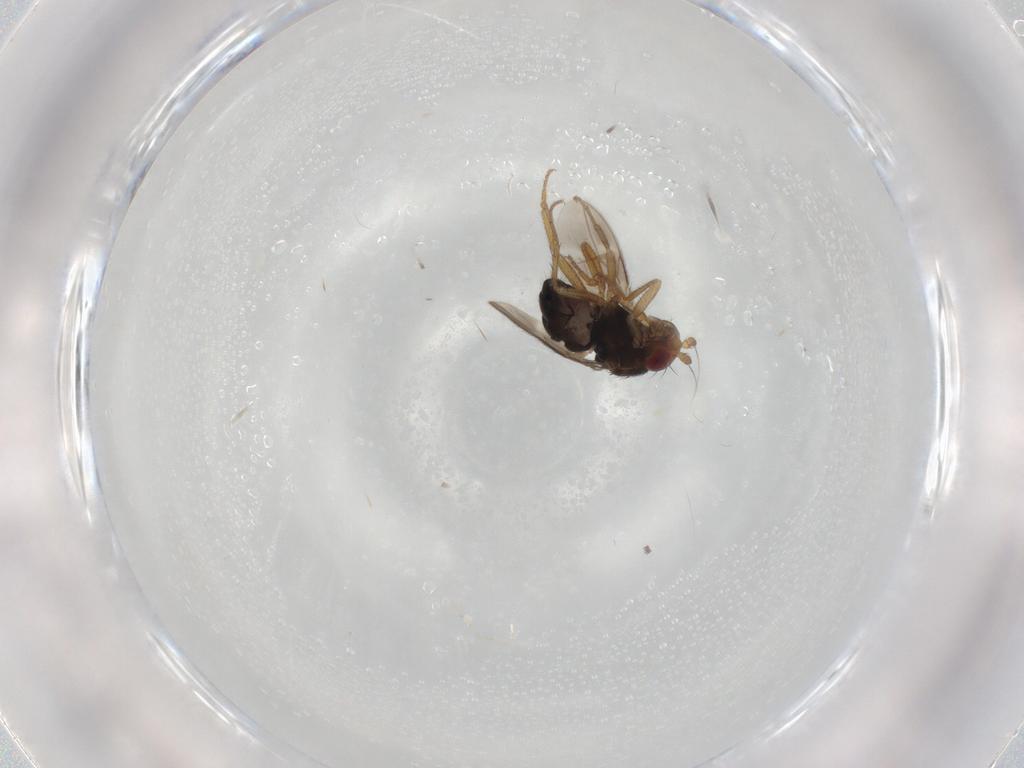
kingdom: Animalia
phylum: Arthropoda
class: Insecta
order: Diptera
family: Sphaeroceridae
